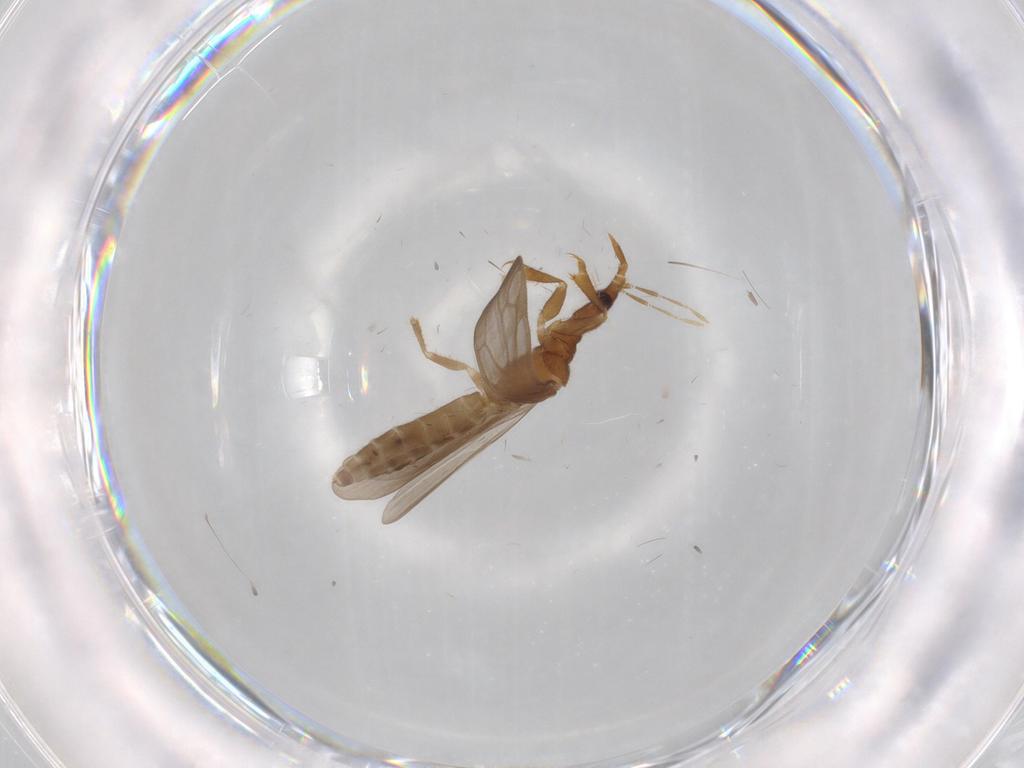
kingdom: Animalia
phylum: Arthropoda
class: Insecta
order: Hemiptera
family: Enicocephalidae
